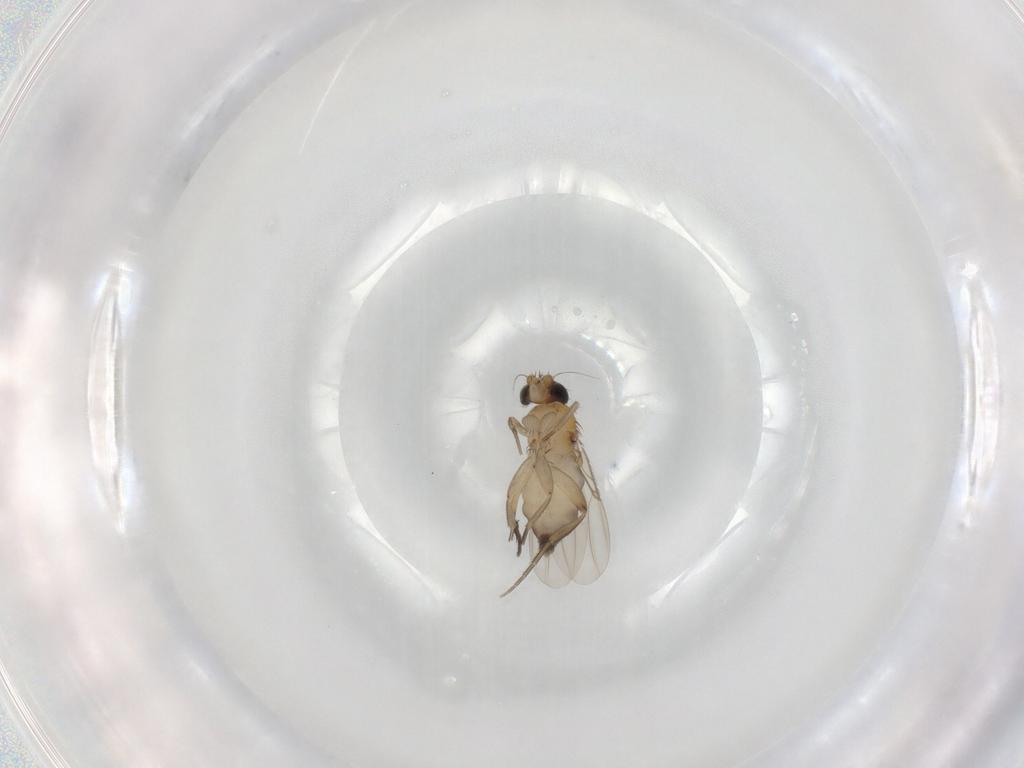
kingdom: Animalia
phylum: Arthropoda
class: Insecta
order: Diptera
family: Phoridae
